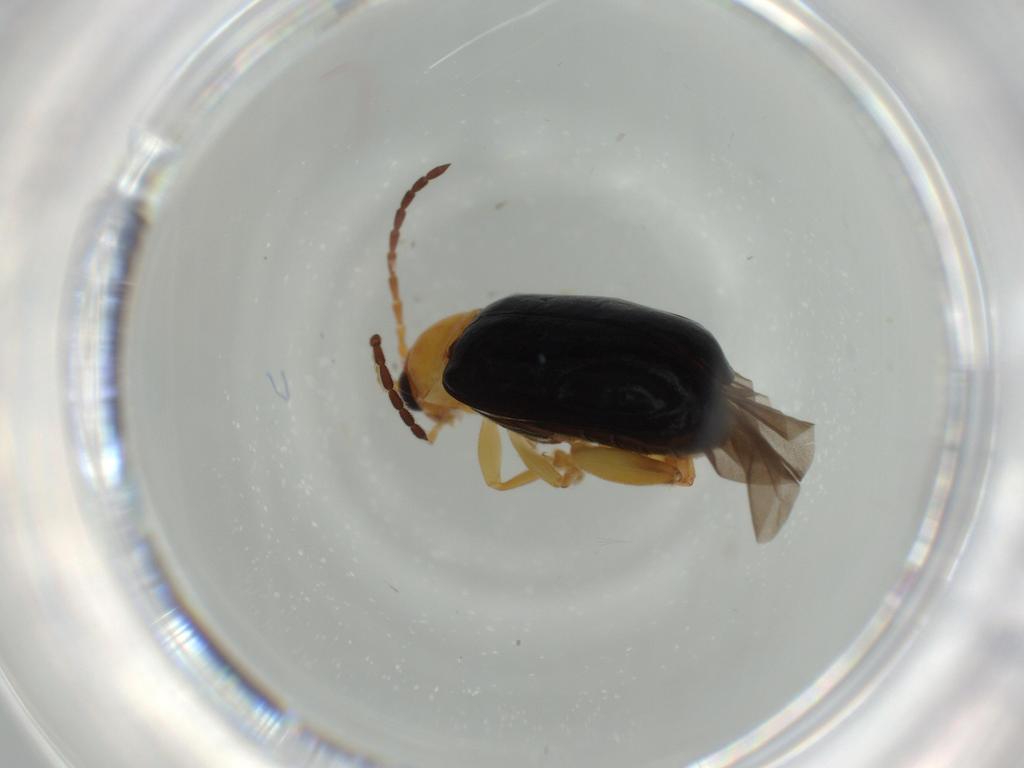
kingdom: Animalia
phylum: Arthropoda
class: Insecta
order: Coleoptera
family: Chrysomelidae
